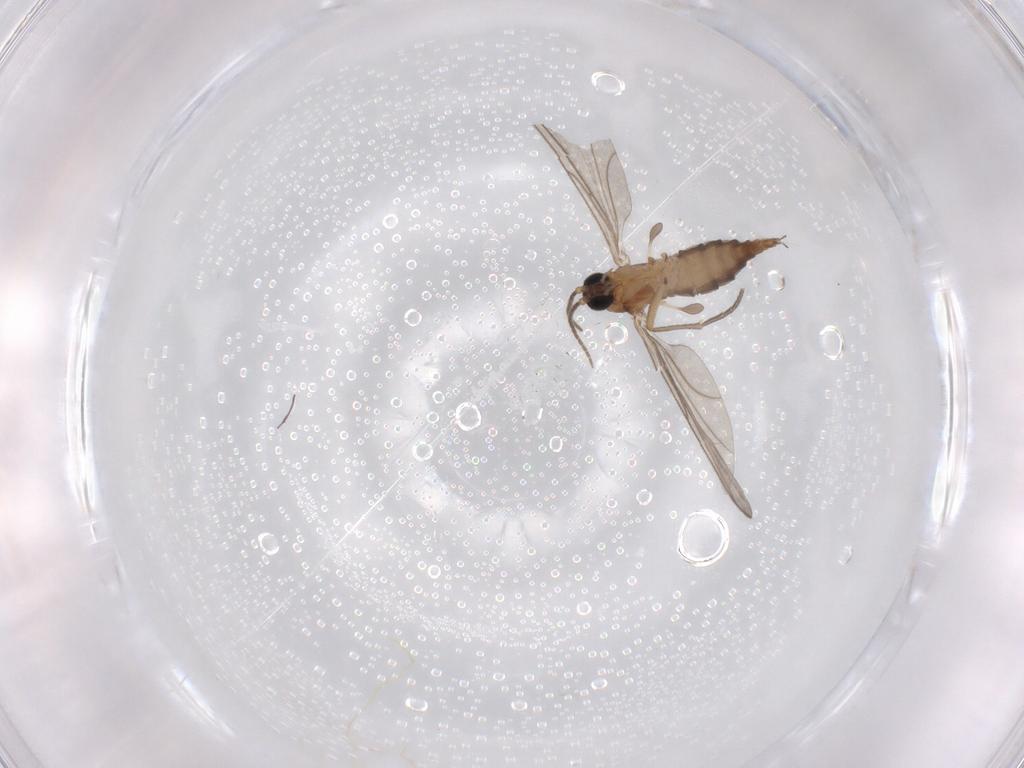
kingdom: Animalia
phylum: Arthropoda
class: Insecta
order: Diptera
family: Sciaridae
